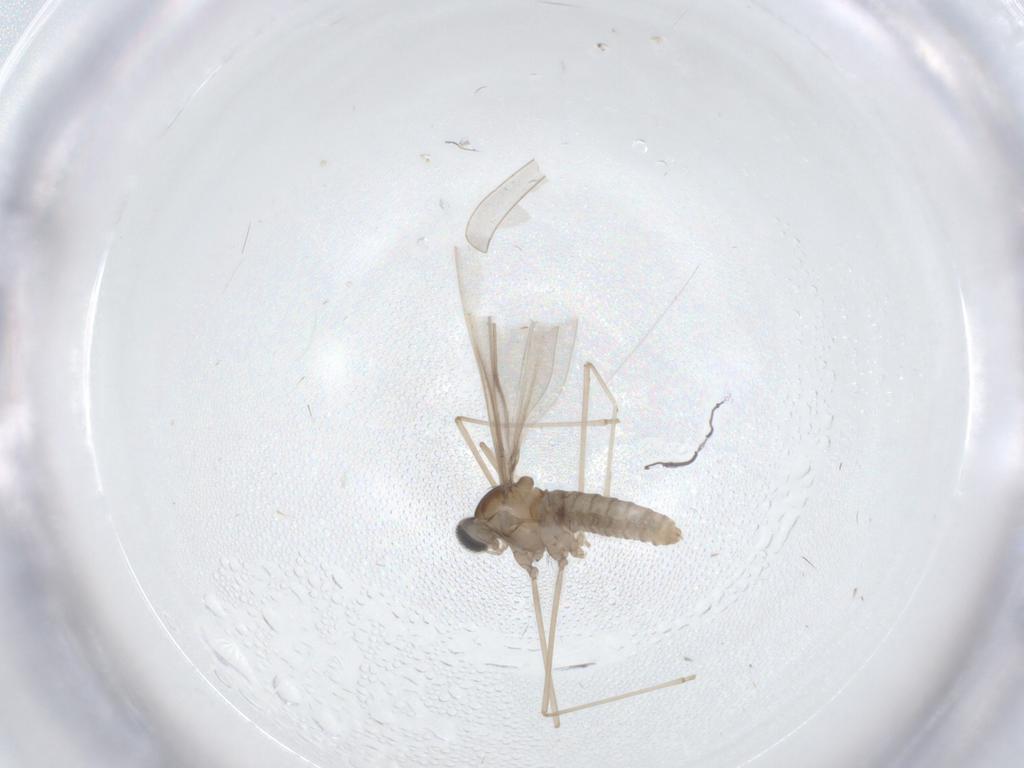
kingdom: Animalia
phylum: Arthropoda
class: Insecta
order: Diptera
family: Cecidomyiidae
